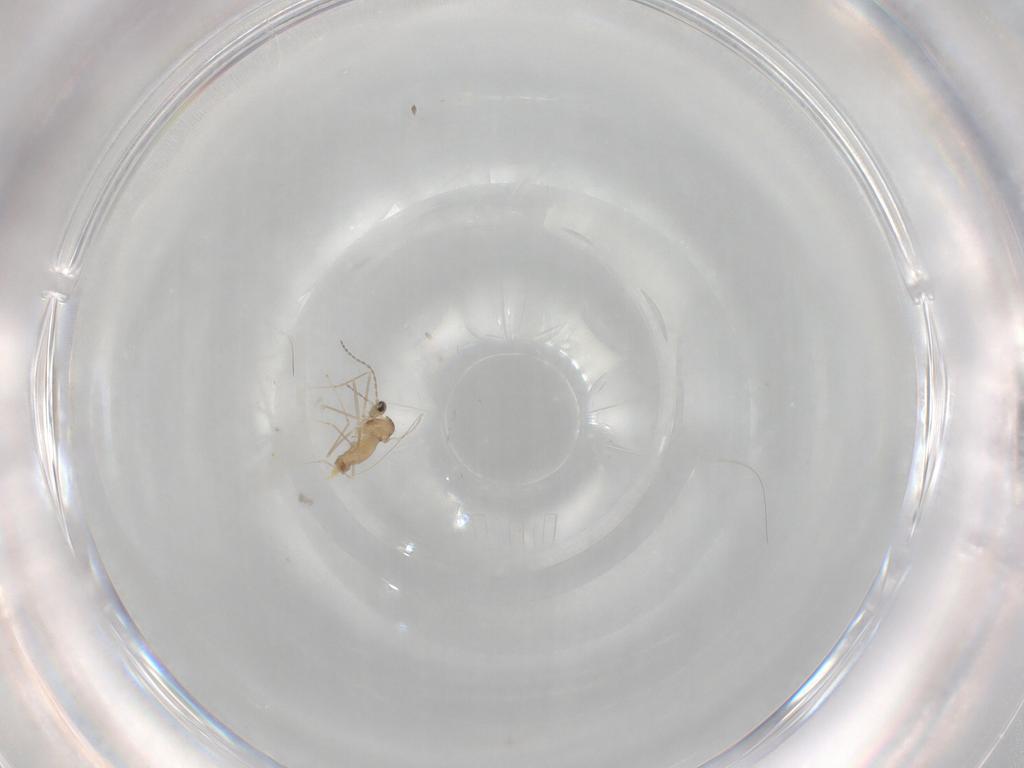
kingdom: Animalia
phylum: Arthropoda
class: Insecta
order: Diptera
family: Cecidomyiidae
